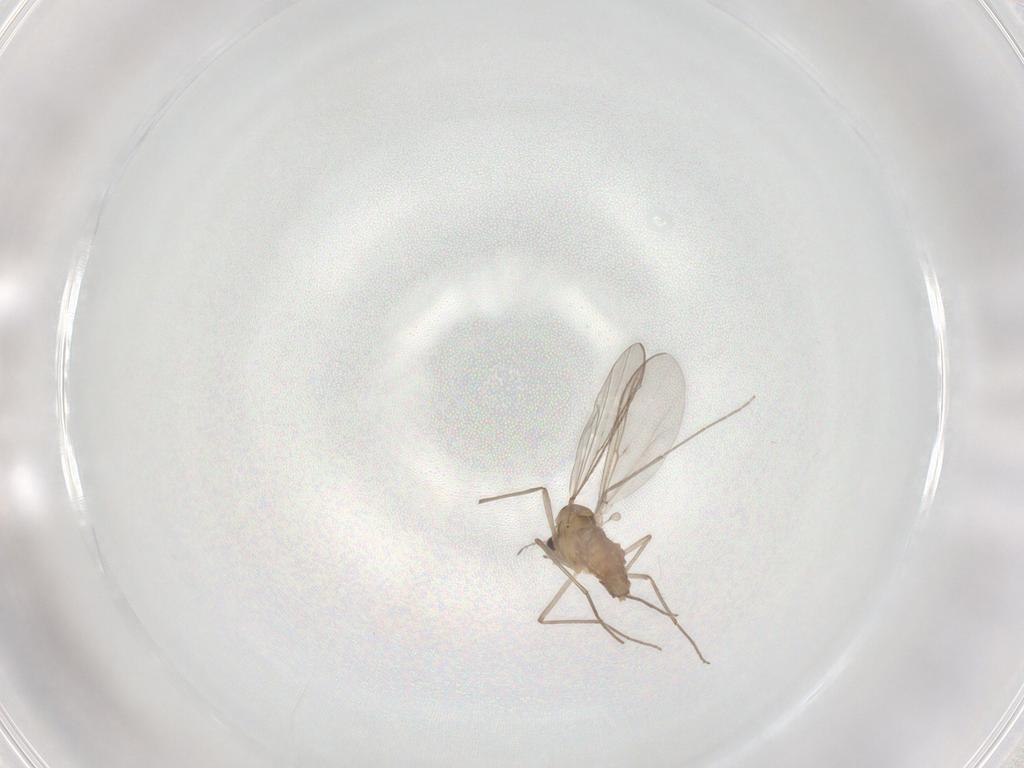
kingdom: Animalia
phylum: Arthropoda
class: Insecta
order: Diptera
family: Chironomidae
